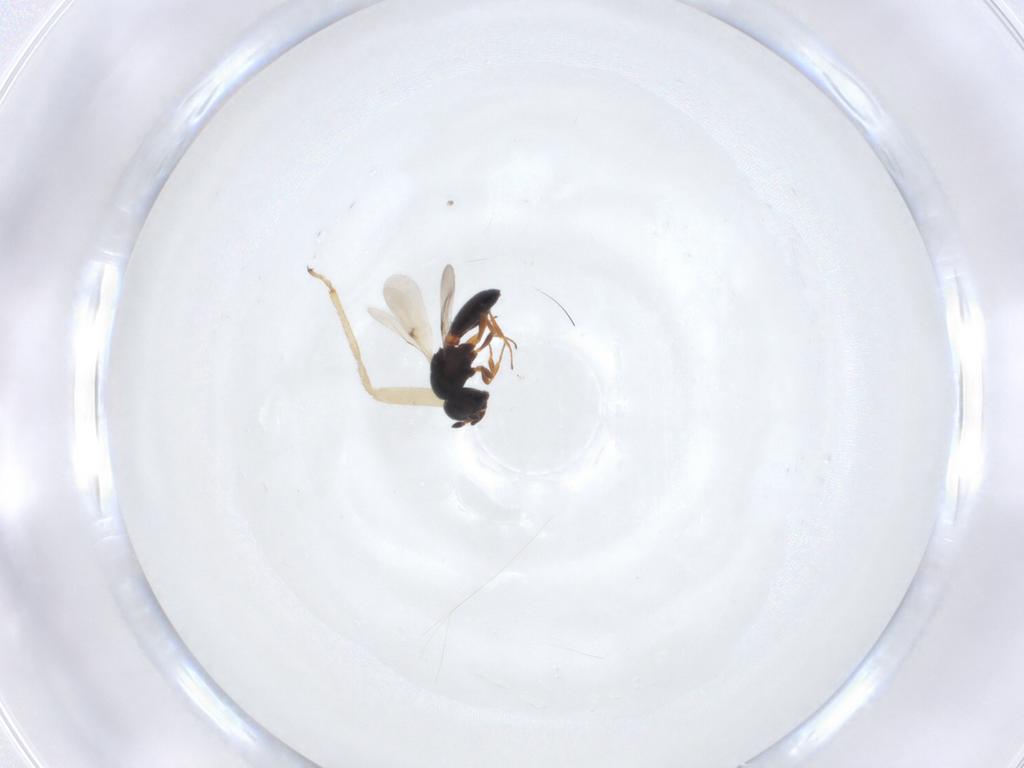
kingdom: Animalia
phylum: Arthropoda
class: Insecta
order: Hymenoptera
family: Scelionidae
